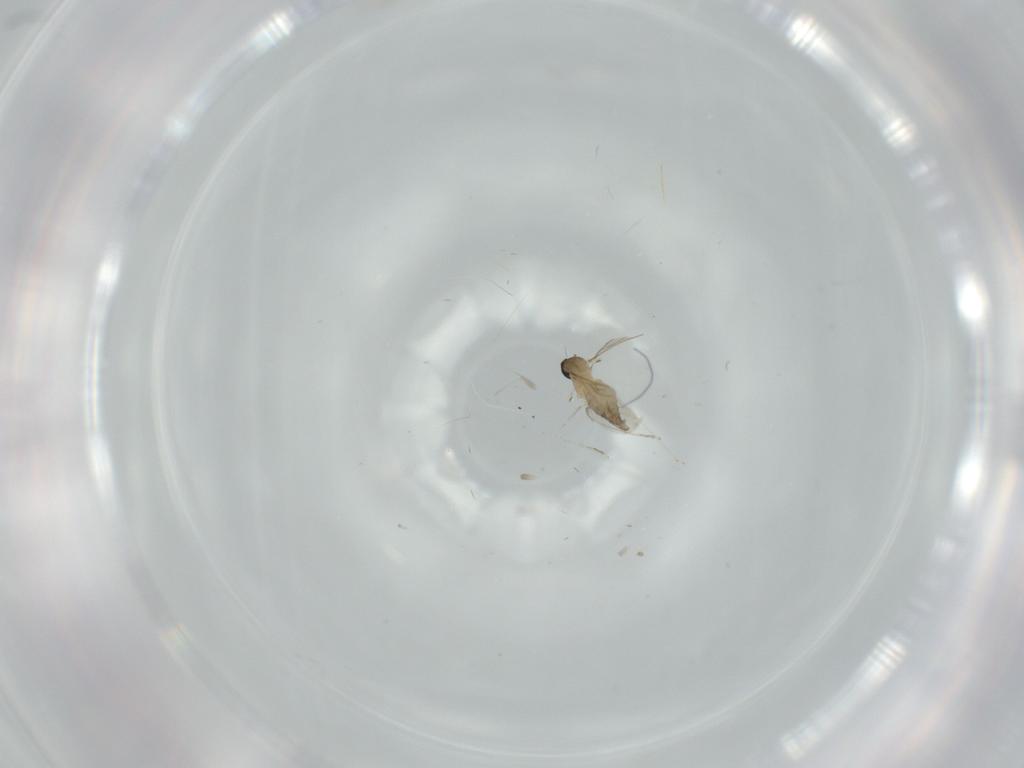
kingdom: Animalia
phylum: Arthropoda
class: Insecta
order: Diptera
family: Cecidomyiidae
